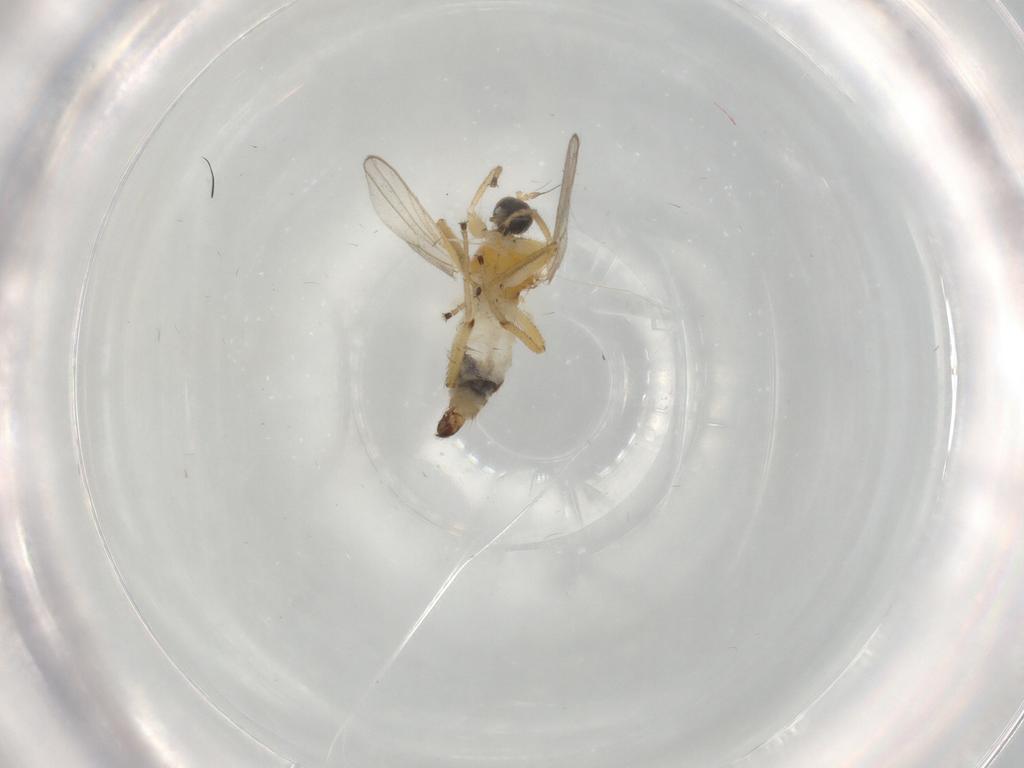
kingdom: Animalia
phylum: Arthropoda
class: Insecta
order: Diptera
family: Hybotidae
